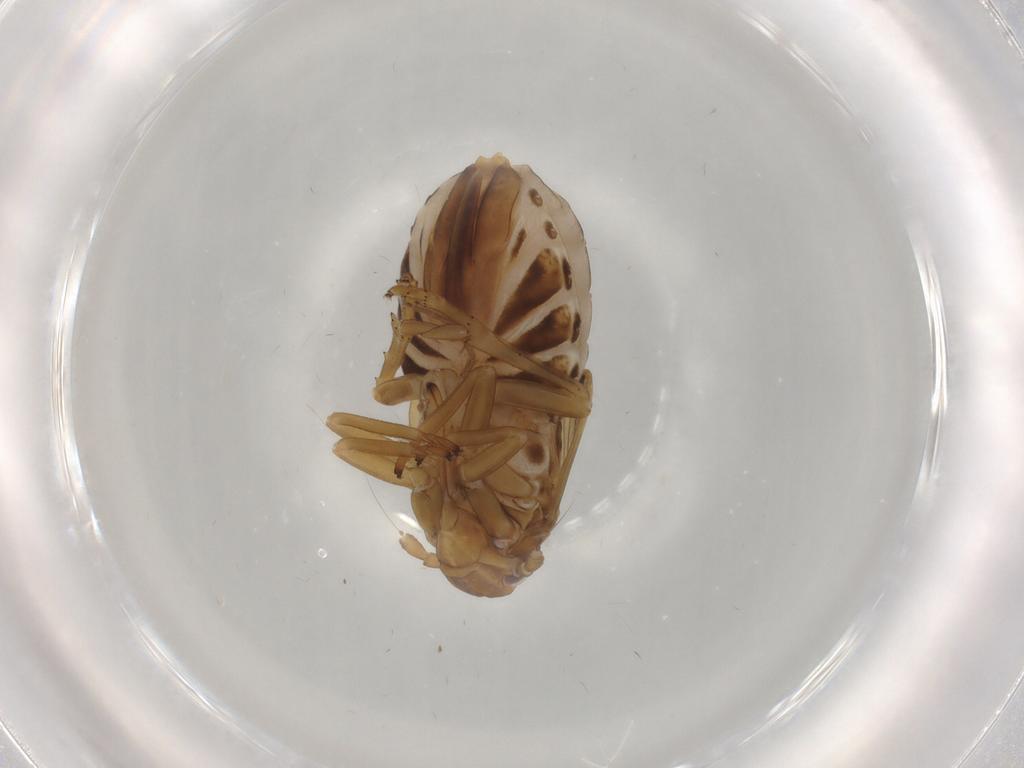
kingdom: Animalia
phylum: Arthropoda
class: Insecta
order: Hemiptera
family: Delphacidae
